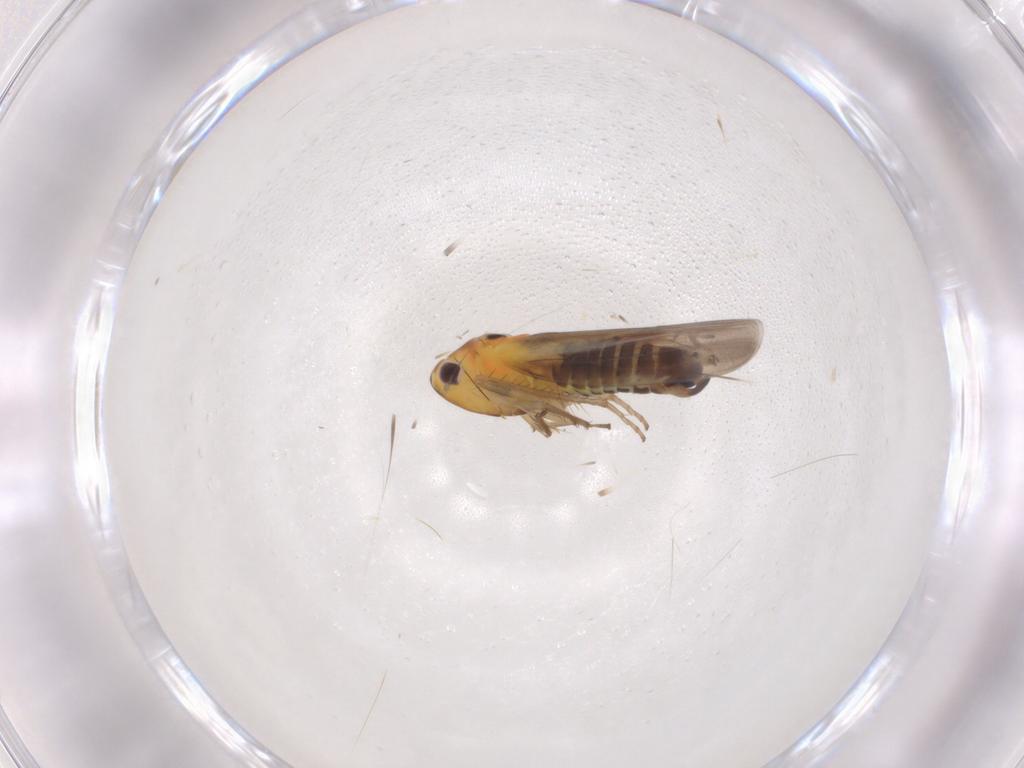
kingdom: Animalia
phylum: Arthropoda
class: Insecta
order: Hemiptera
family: Cicadellidae
